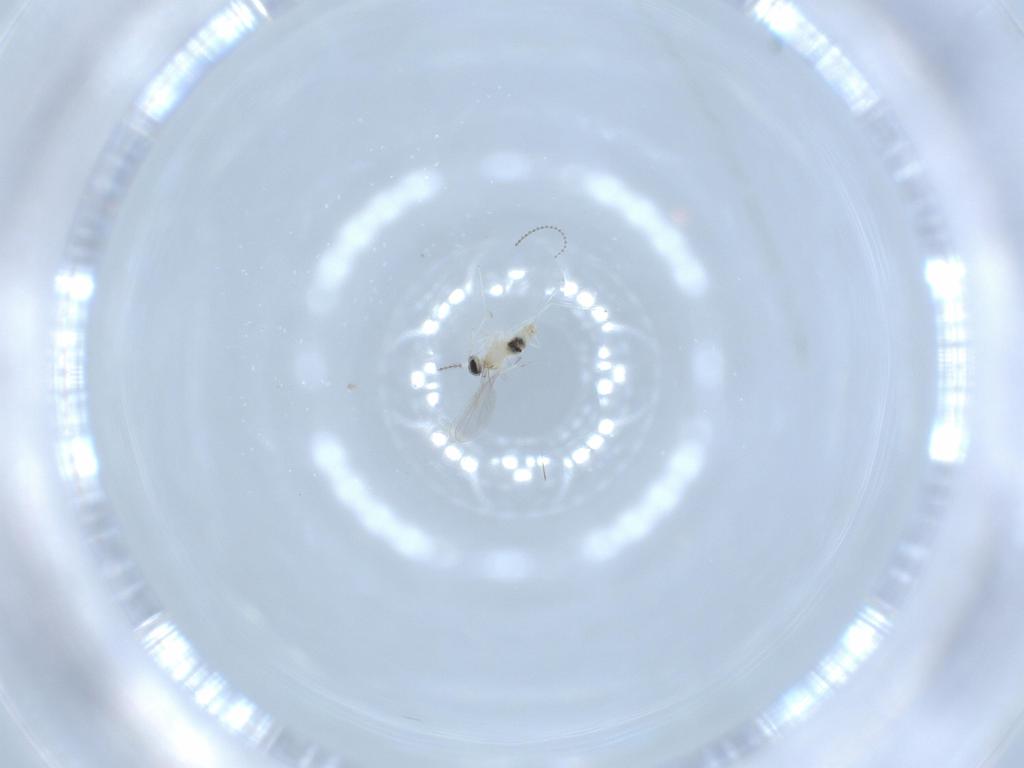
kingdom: Animalia
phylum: Arthropoda
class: Insecta
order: Diptera
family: Cecidomyiidae
